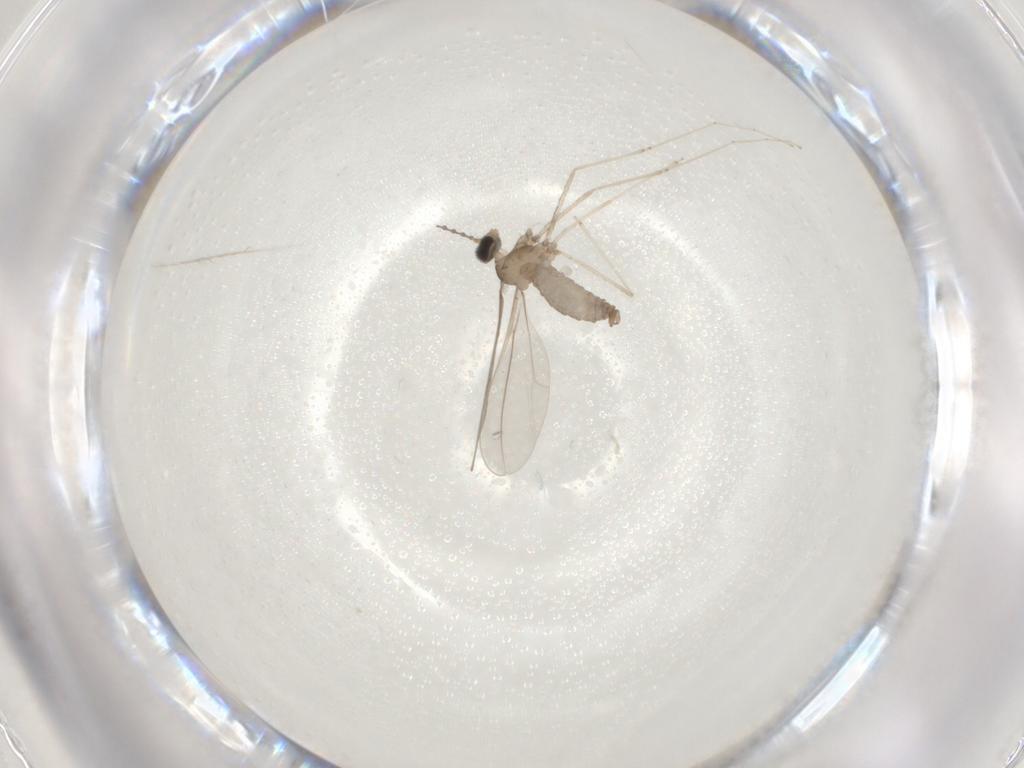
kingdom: Animalia
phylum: Arthropoda
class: Insecta
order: Diptera
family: Cecidomyiidae
